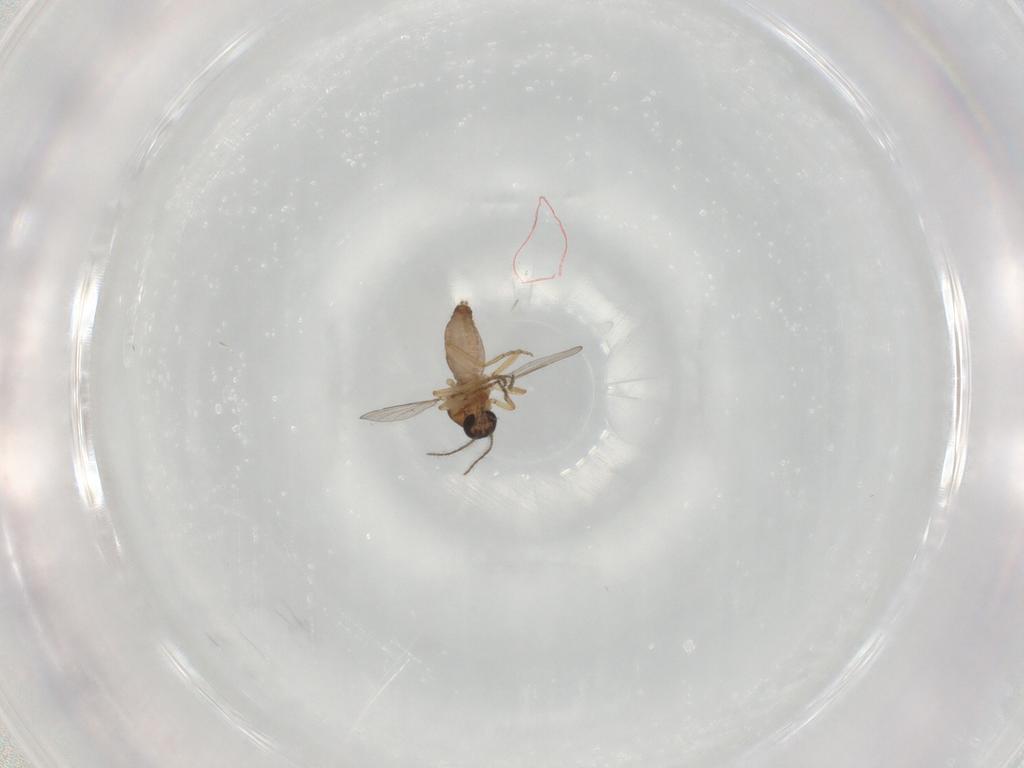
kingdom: Animalia
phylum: Arthropoda
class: Insecta
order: Diptera
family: Ceratopogonidae
